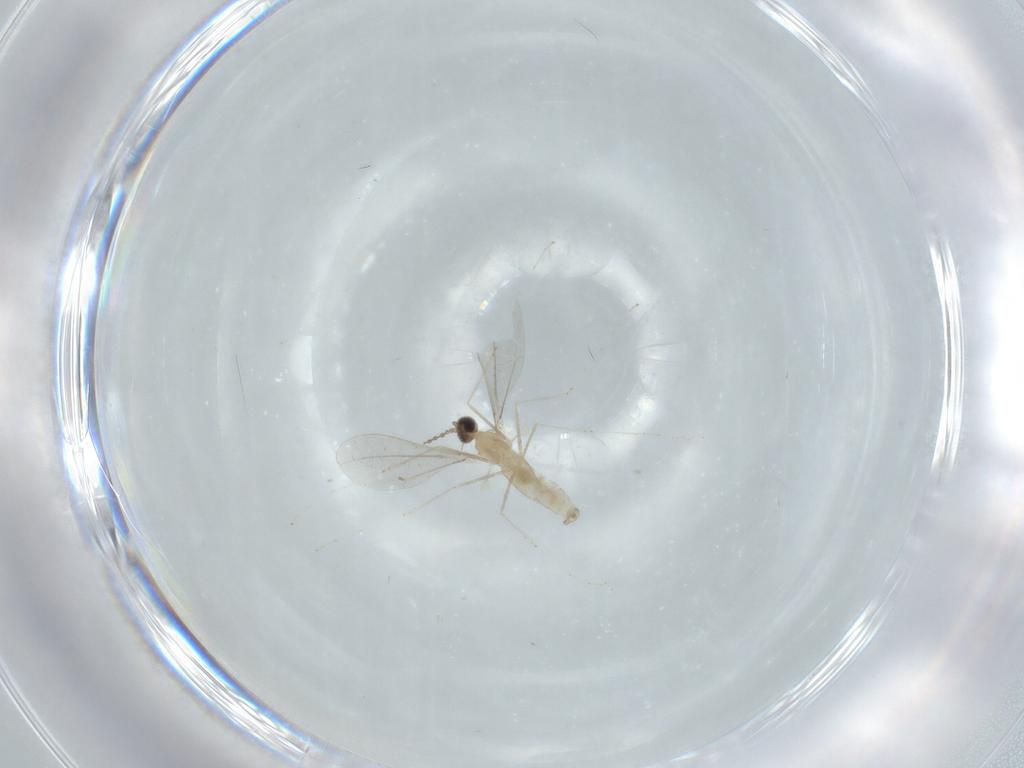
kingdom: Animalia
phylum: Arthropoda
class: Insecta
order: Diptera
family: Cecidomyiidae
